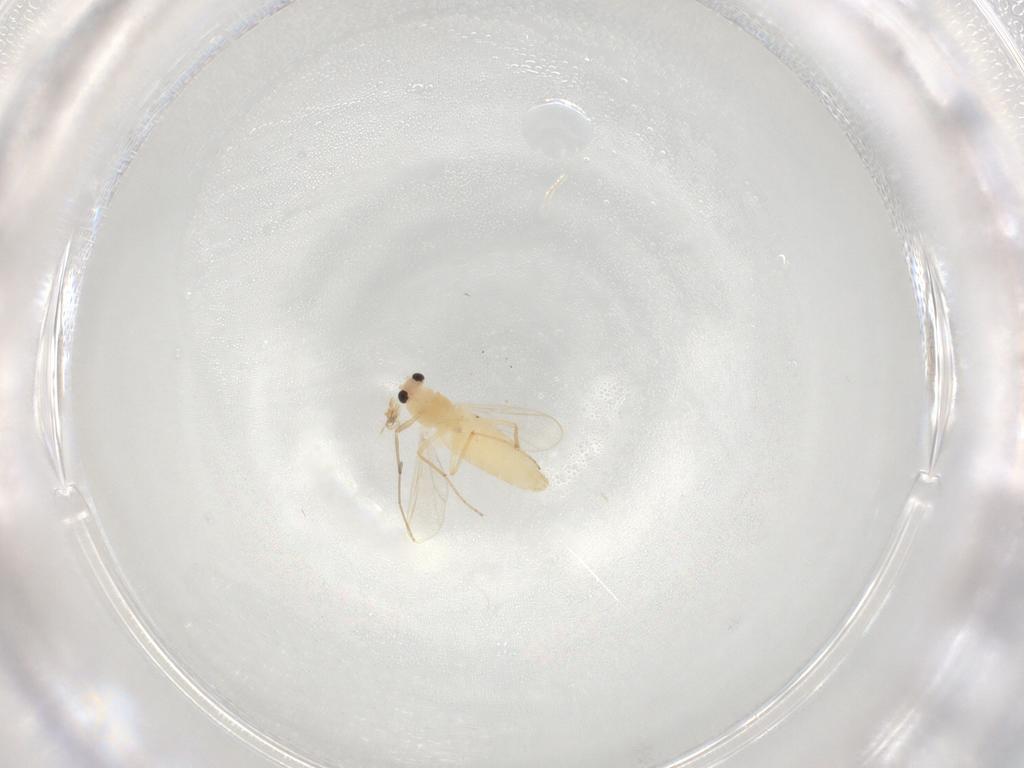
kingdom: Animalia
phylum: Arthropoda
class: Insecta
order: Diptera
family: Chironomidae
